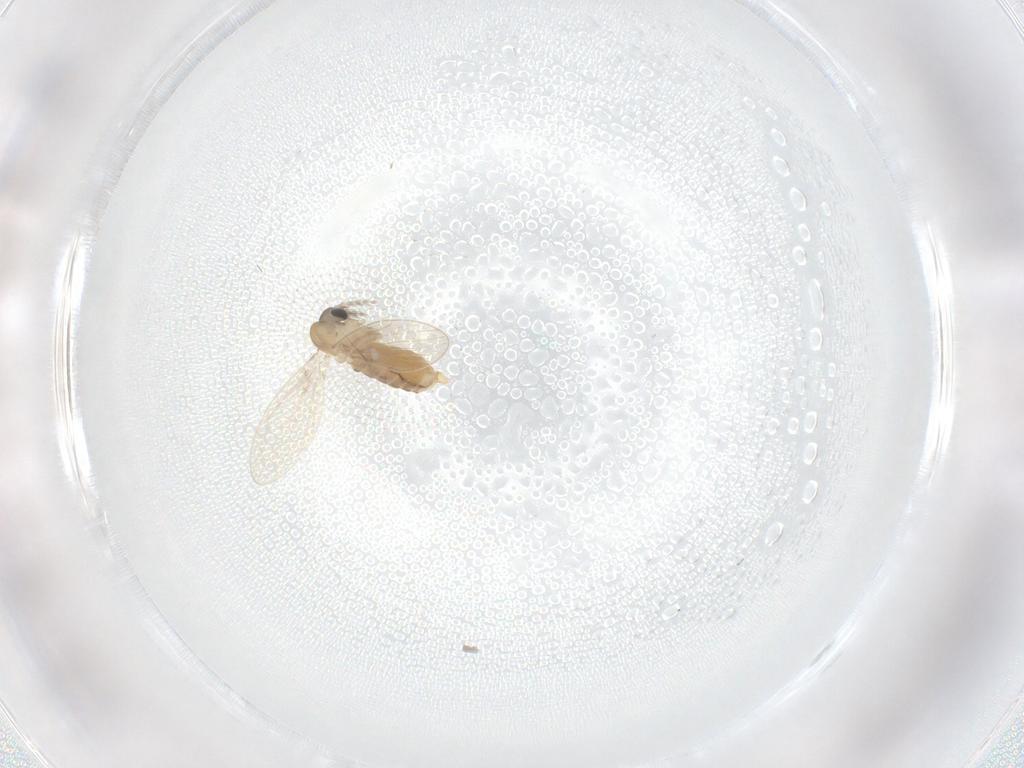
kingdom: Animalia
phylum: Arthropoda
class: Insecta
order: Diptera
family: Psychodidae
